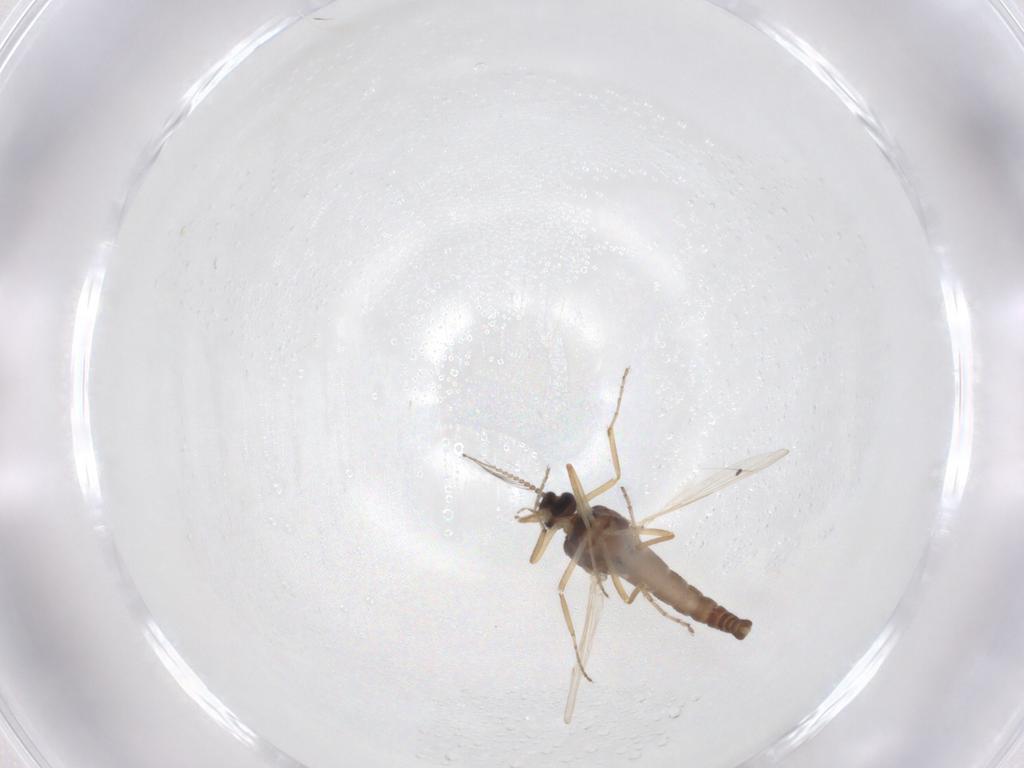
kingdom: Animalia
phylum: Arthropoda
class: Insecta
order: Diptera
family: Ceratopogonidae
